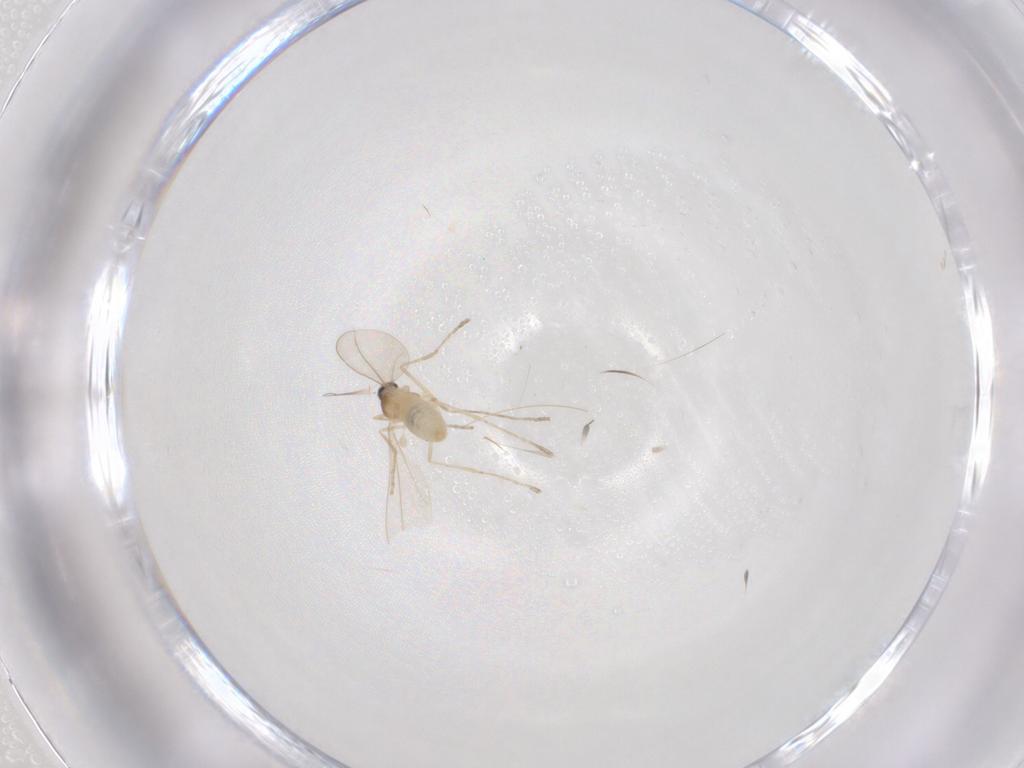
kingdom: Animalia
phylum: Arthropoda
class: Insecta
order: Diptera
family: Cecidomyiidae
